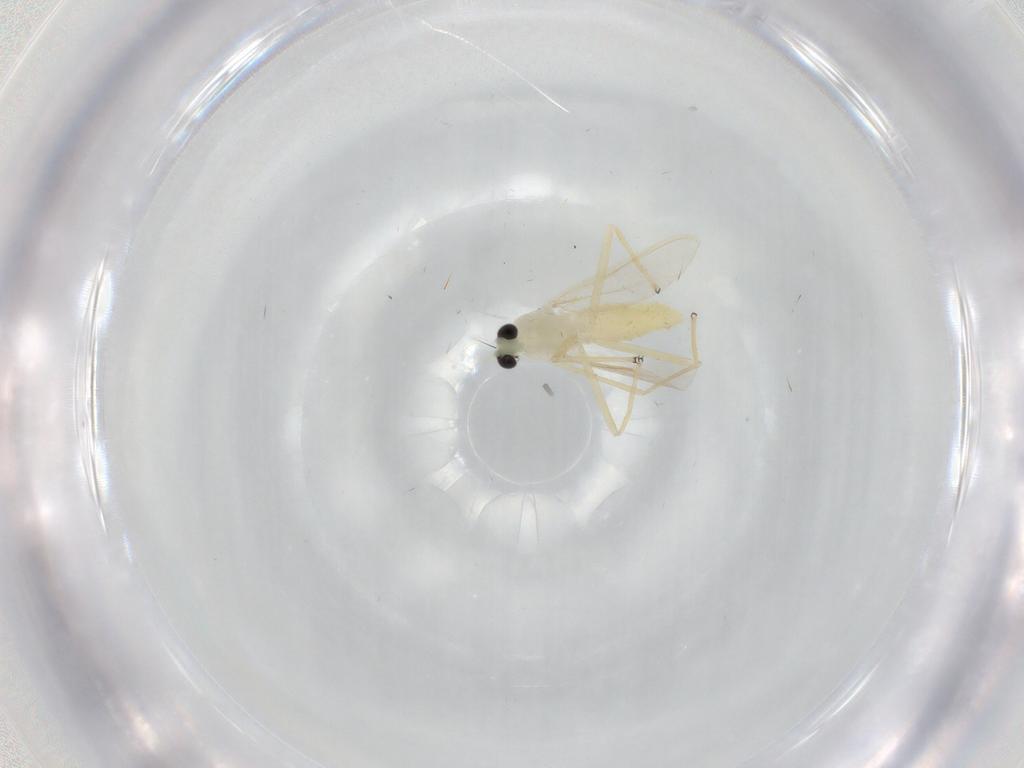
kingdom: Animalia
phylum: Arthropoda
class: Insecta
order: Diptera
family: Chironomidae
